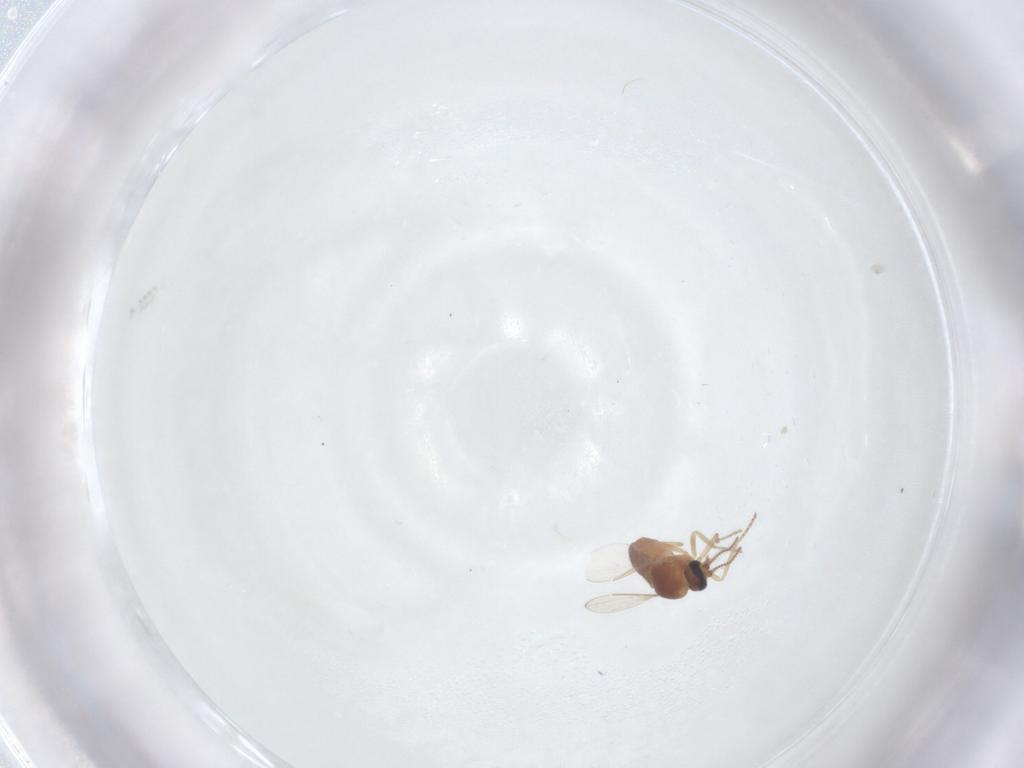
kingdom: Animalia
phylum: Arthropoda
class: Insecta
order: Diptera
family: Ceratopogonidae
